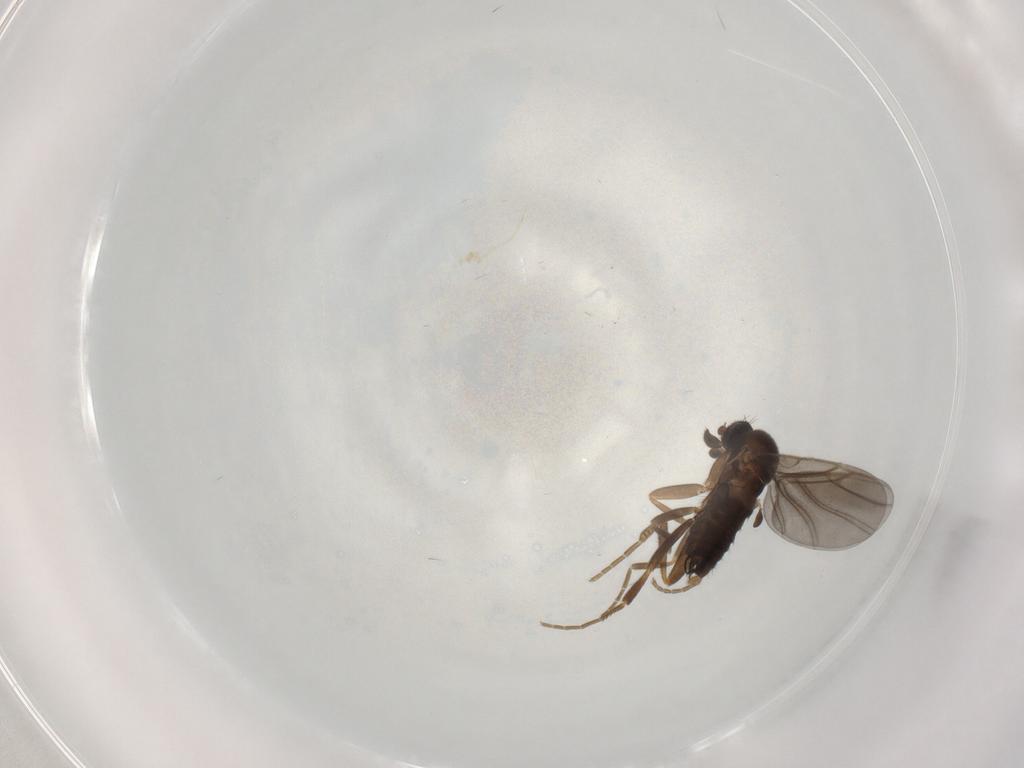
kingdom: Animalia
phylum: Arthropoda
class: Insecta
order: Diptera
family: Phoridae
